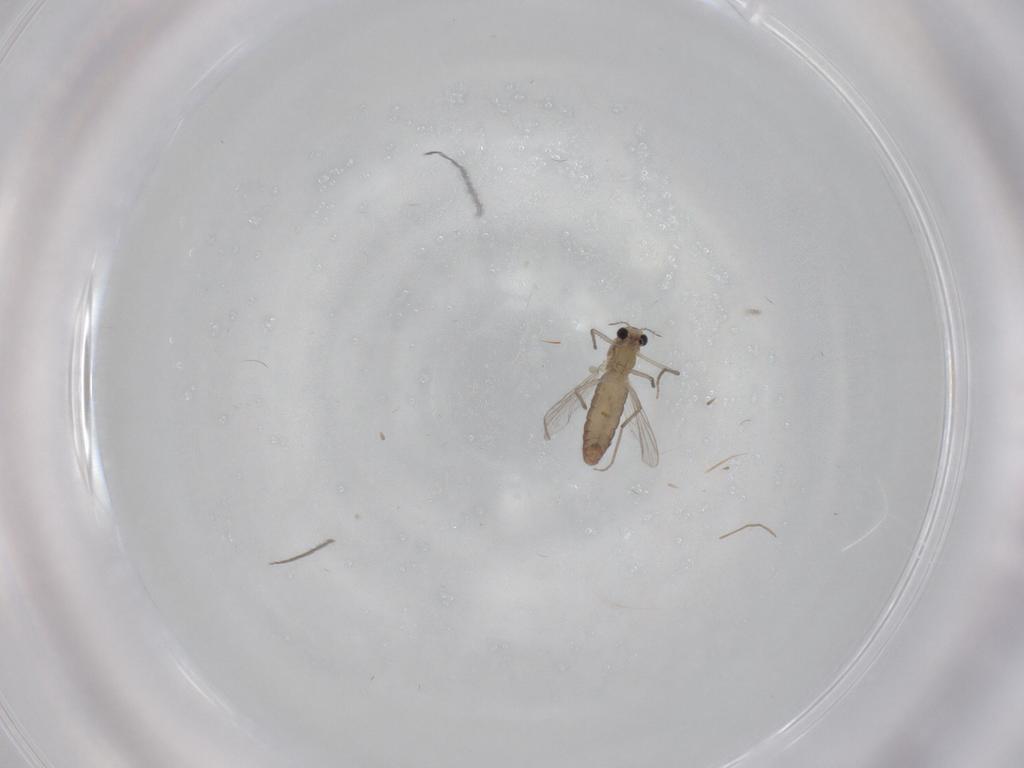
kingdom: Animalia
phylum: Arthropoda
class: Insecta
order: Diptera
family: Chironomidae
